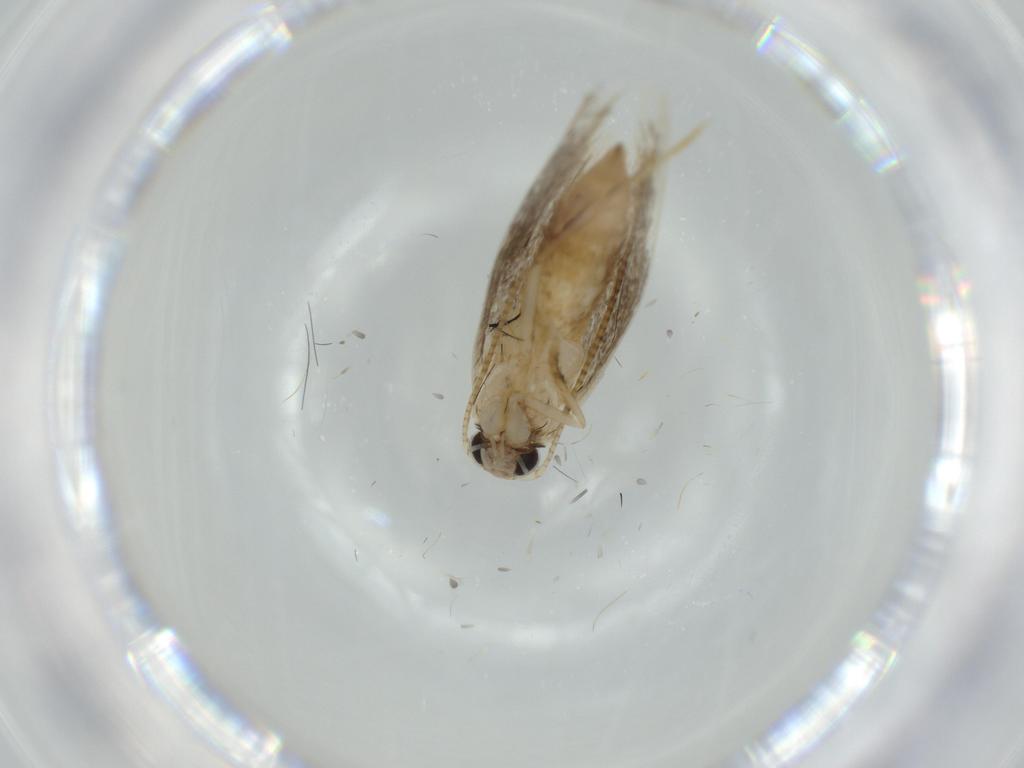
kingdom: Animalia
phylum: Arthropoda
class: Insecta
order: Lepidoptera
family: Tineidae
